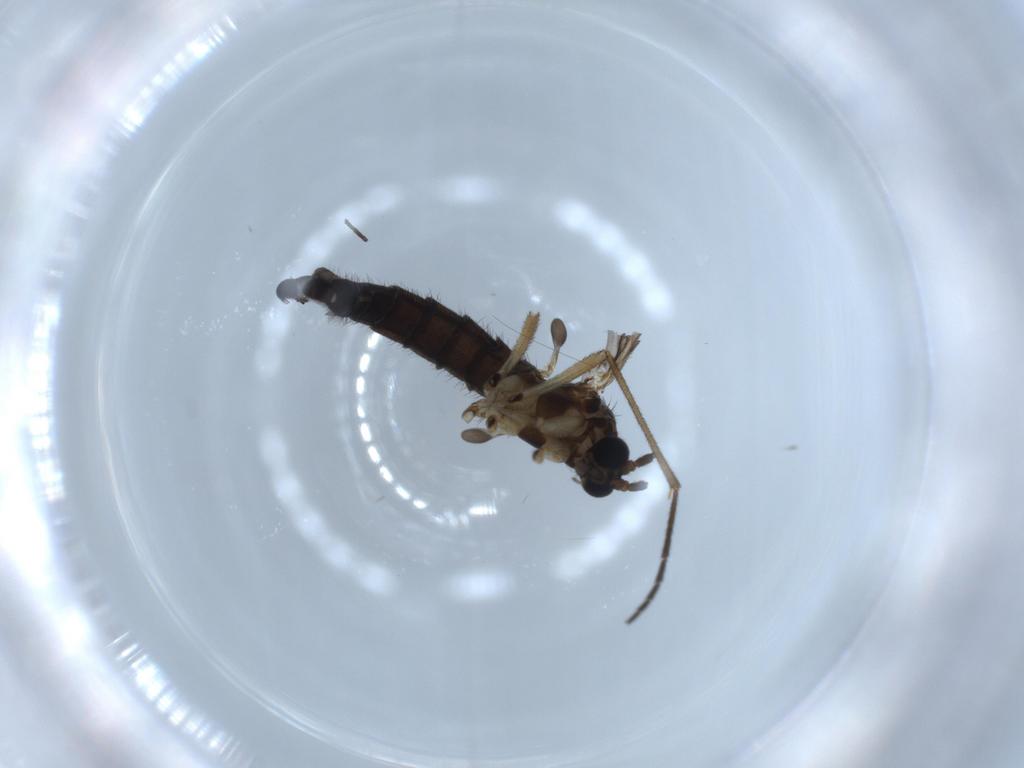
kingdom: Animalia
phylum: Arthropoda
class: Insecta
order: Diptera
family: Sciaridae
